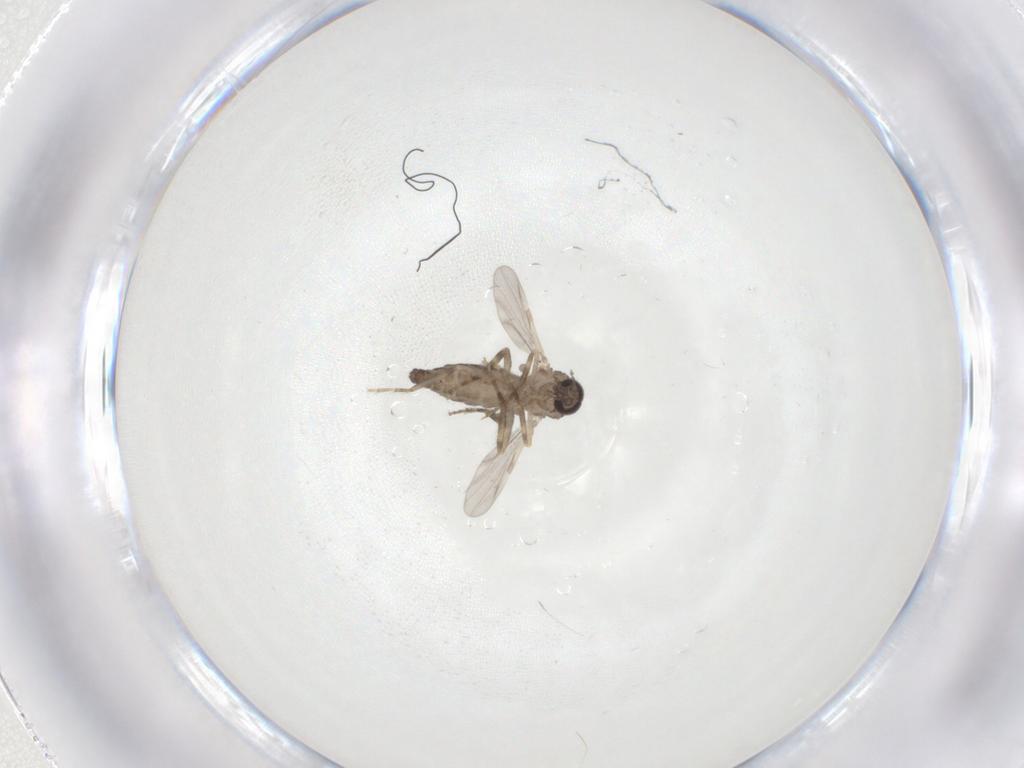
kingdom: Animalia
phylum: Arthropoda
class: Insecta
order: Diptera
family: Ceratopogonidae
